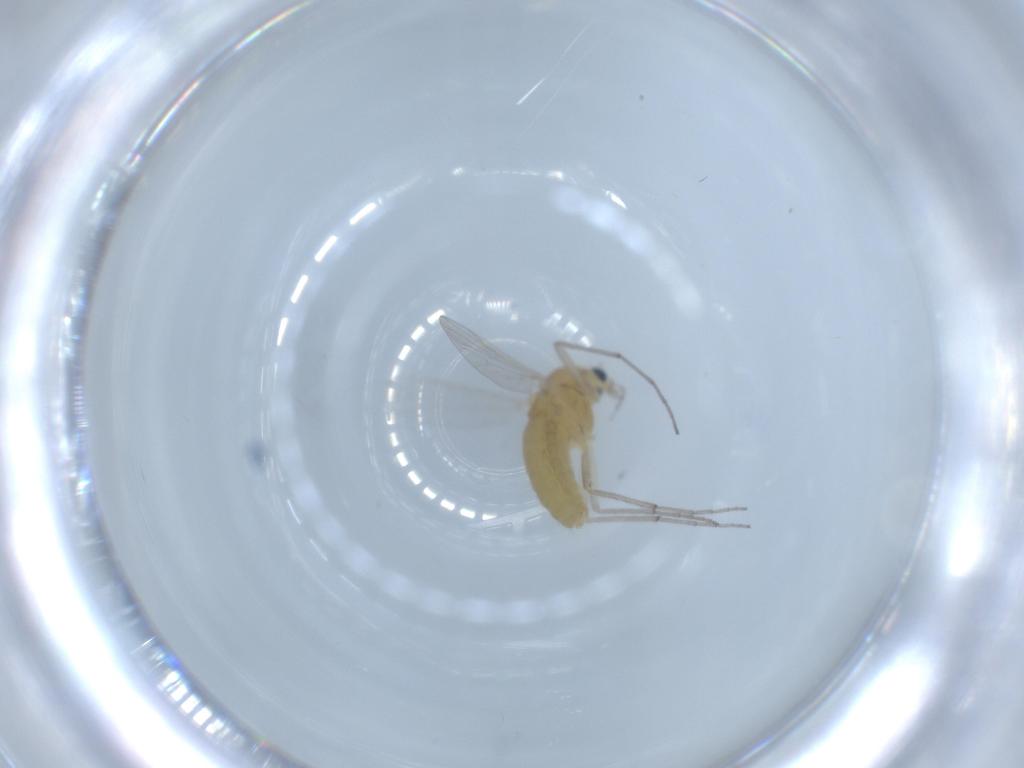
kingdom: Animalia
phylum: Arthropoda
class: Insecta
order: Diptera
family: Chironomidae
